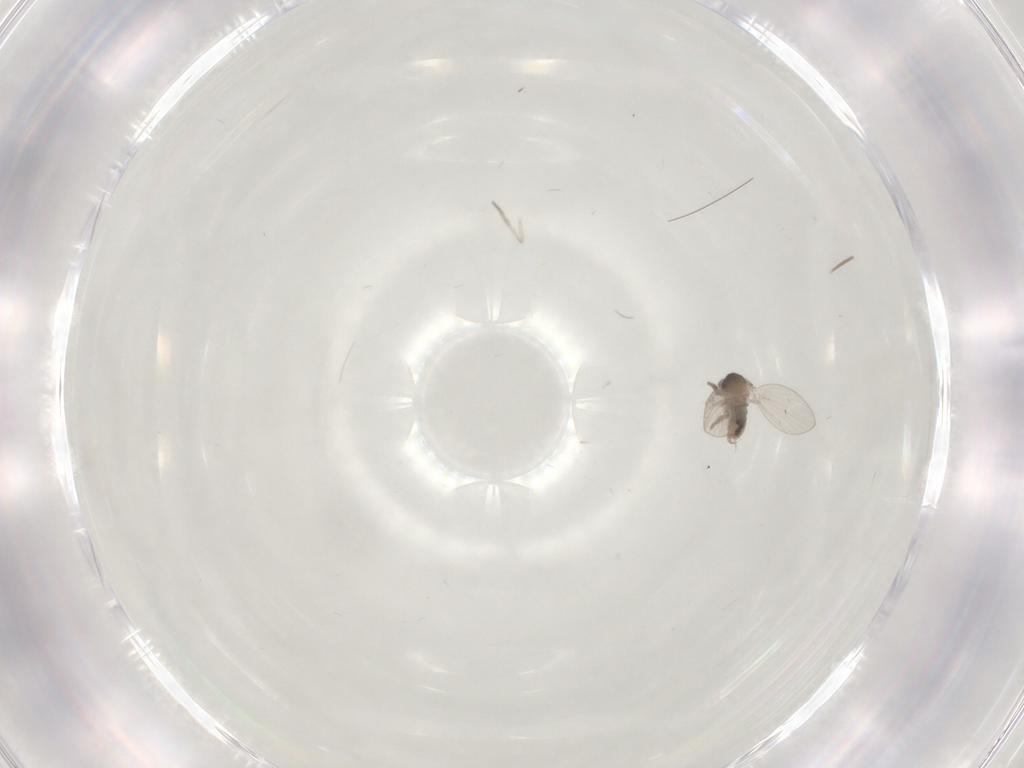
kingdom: Animalia
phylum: Arthropoda
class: Insecta
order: Diptera
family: Psychodidae
